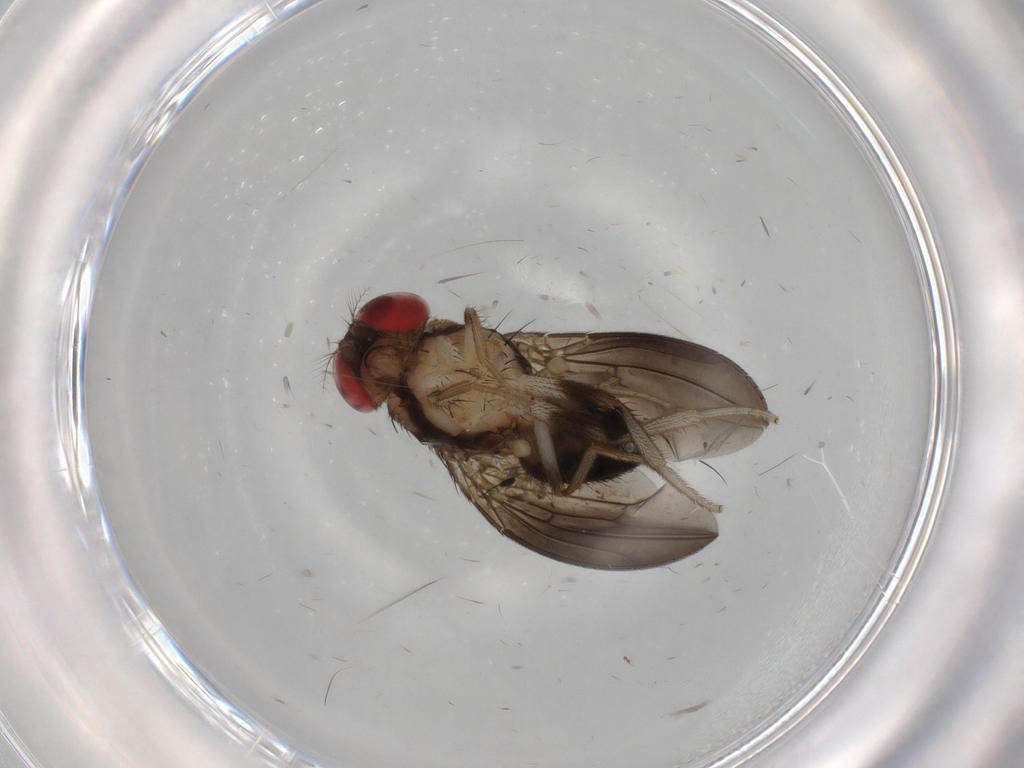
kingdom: Animalia
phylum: Arthropoda
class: Insecta
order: Diptera
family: Drosophilidae
